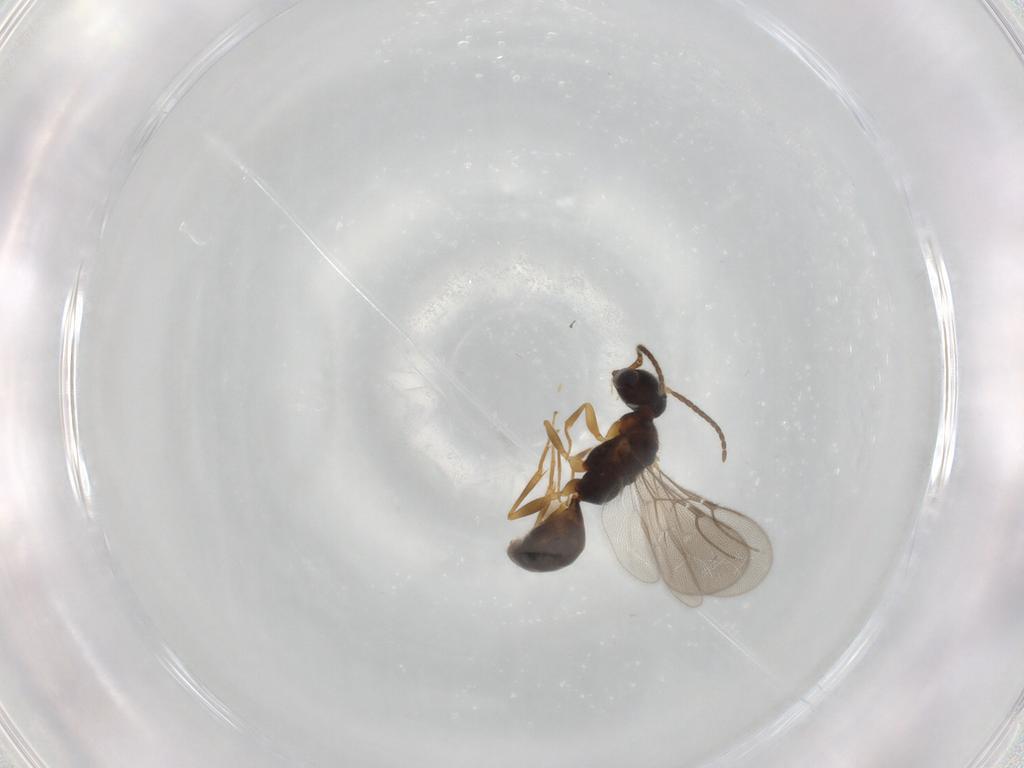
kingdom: Animalia
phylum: Arthropoda
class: Insecta
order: Hymenoptera
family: Bethylidae
